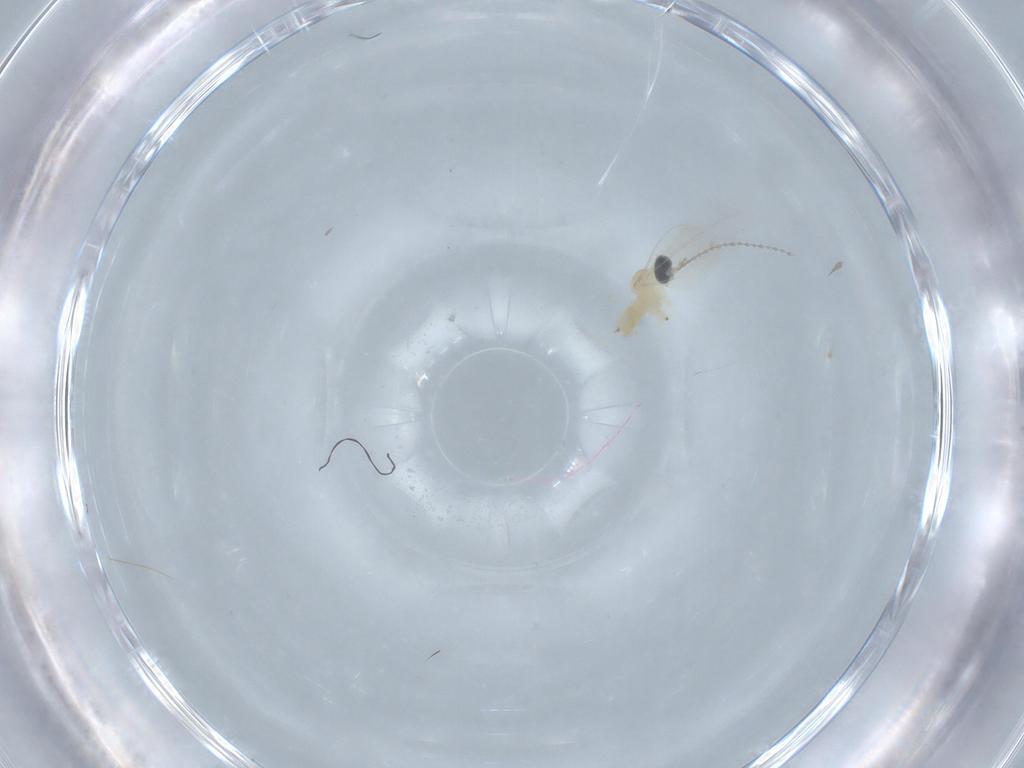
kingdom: Animalia
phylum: Arthropoda
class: Insecta
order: Diptera
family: Cecidomyiidae
